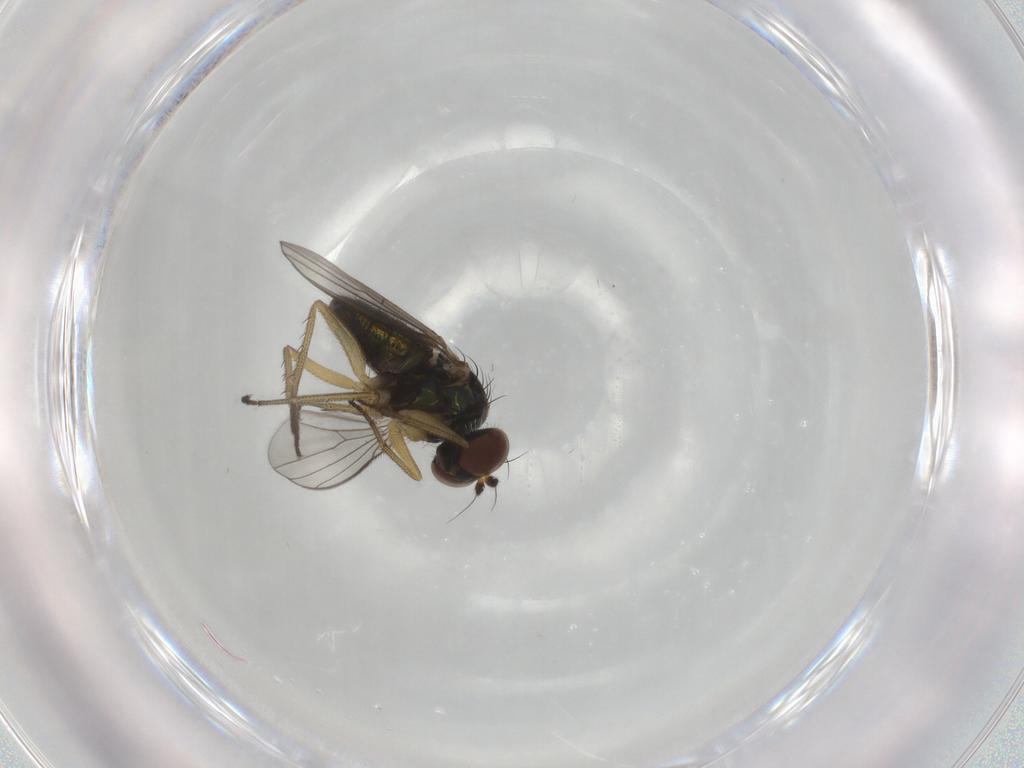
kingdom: Animalia
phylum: Arthropoda
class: Insecta
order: Diptera
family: Dolichopodidae
